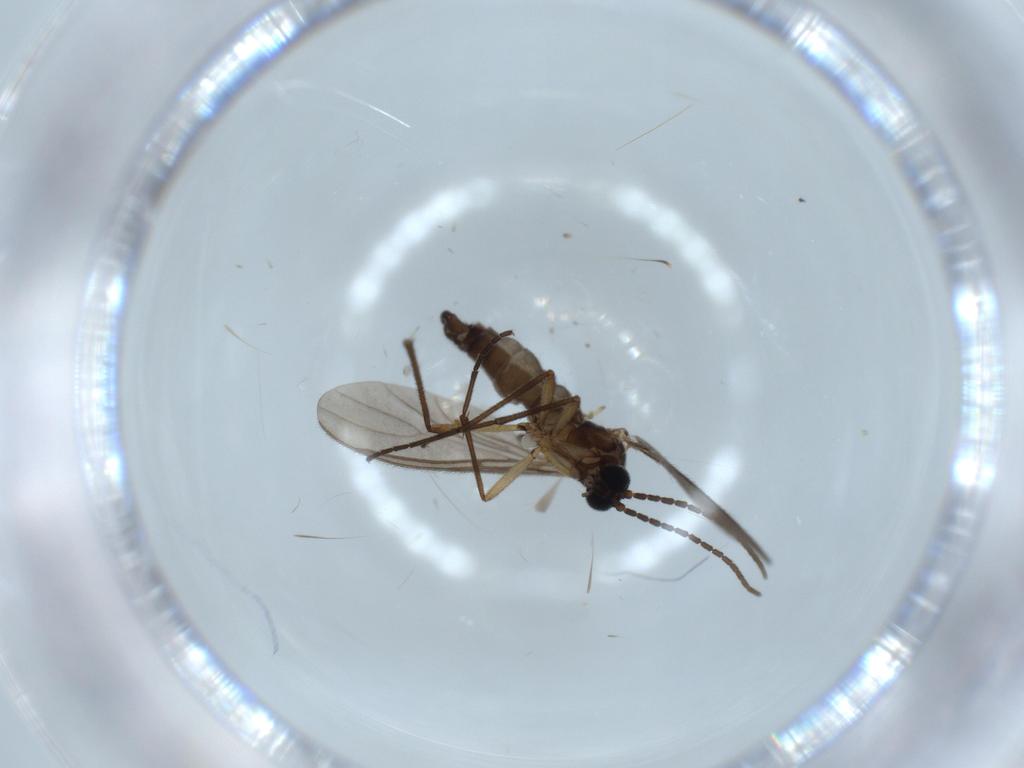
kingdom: Animalia
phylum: Arthropoda
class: Insecta
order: Diptera
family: Sciaridae
